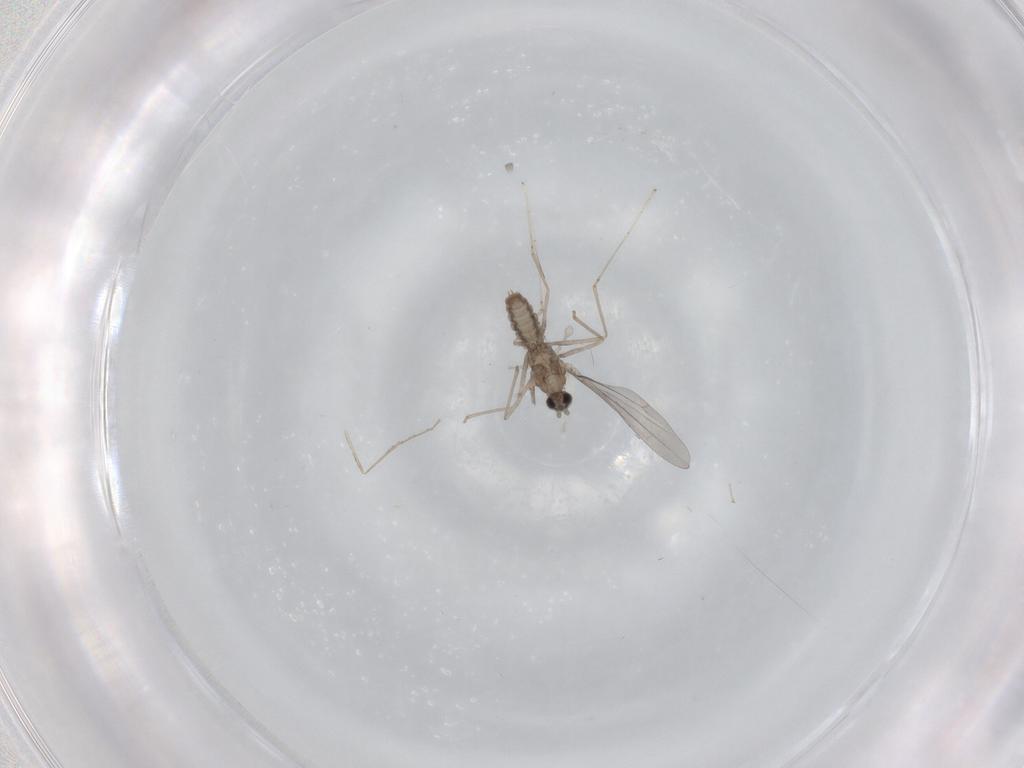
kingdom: Animalia
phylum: Arthropoda
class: Insecta
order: Diptera
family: Cecidomyiidae
